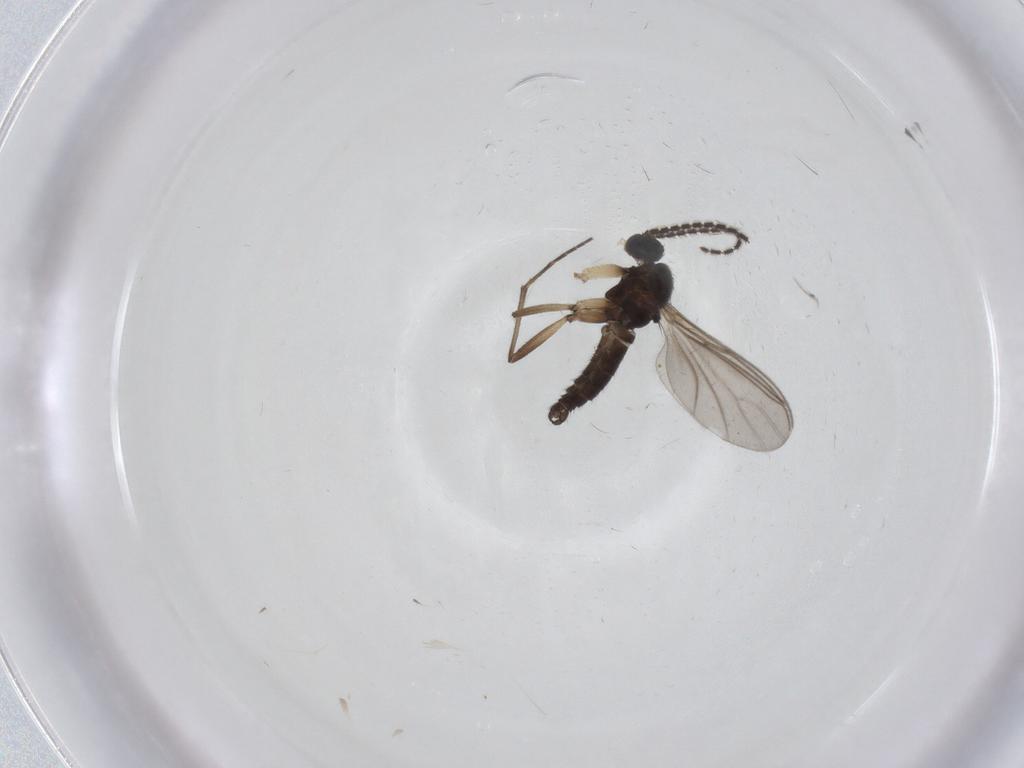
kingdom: Animalia
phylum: Arthropoda
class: Insecta
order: Diptera
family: Sciaridae
